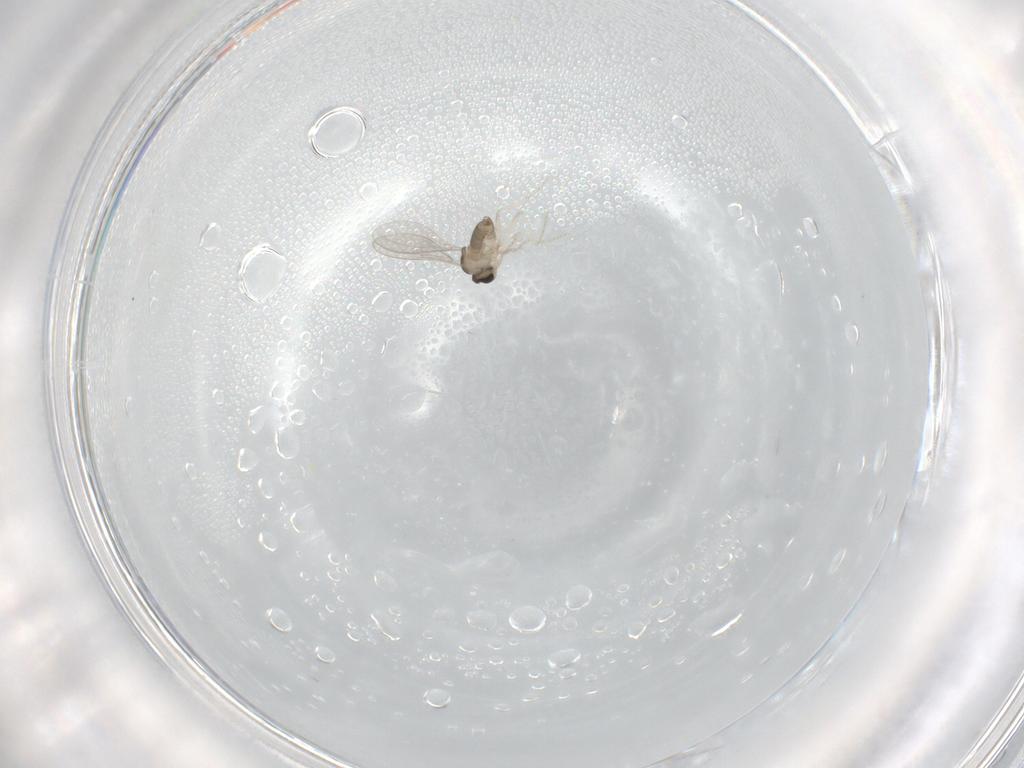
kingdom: Animalia
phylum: Arthropoda
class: Insecta
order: Diptera
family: Cecidomyiidae
